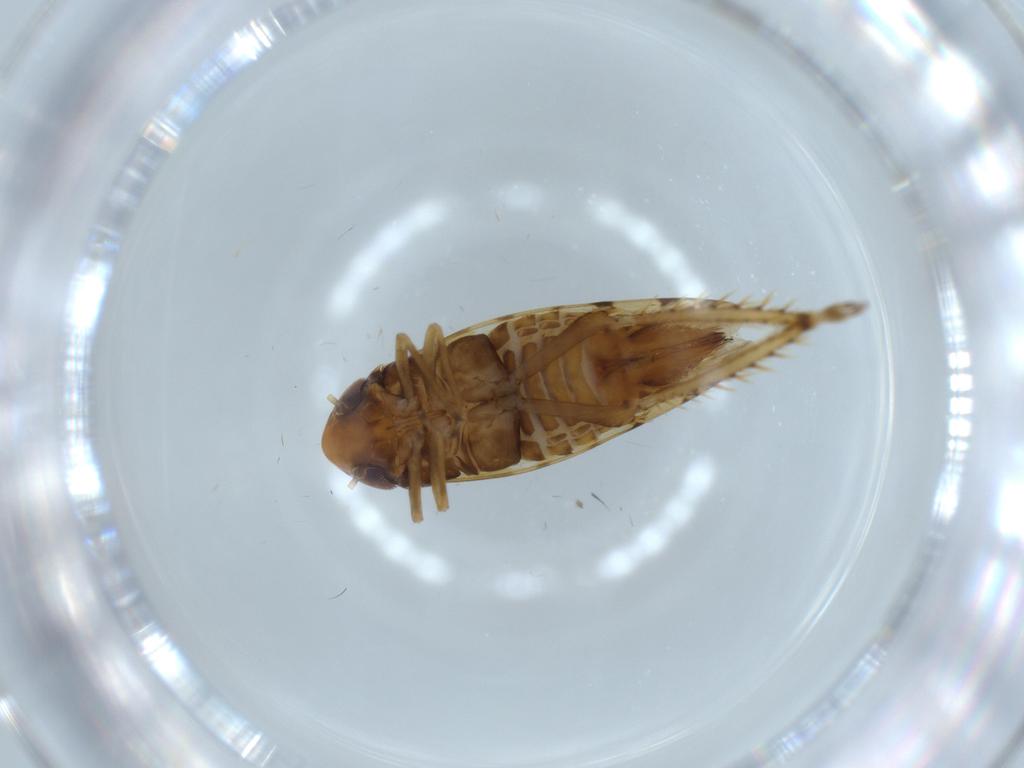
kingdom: Animalia
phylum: Arthropoda
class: Insecta
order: Hemiptera
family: Cicadellidae
